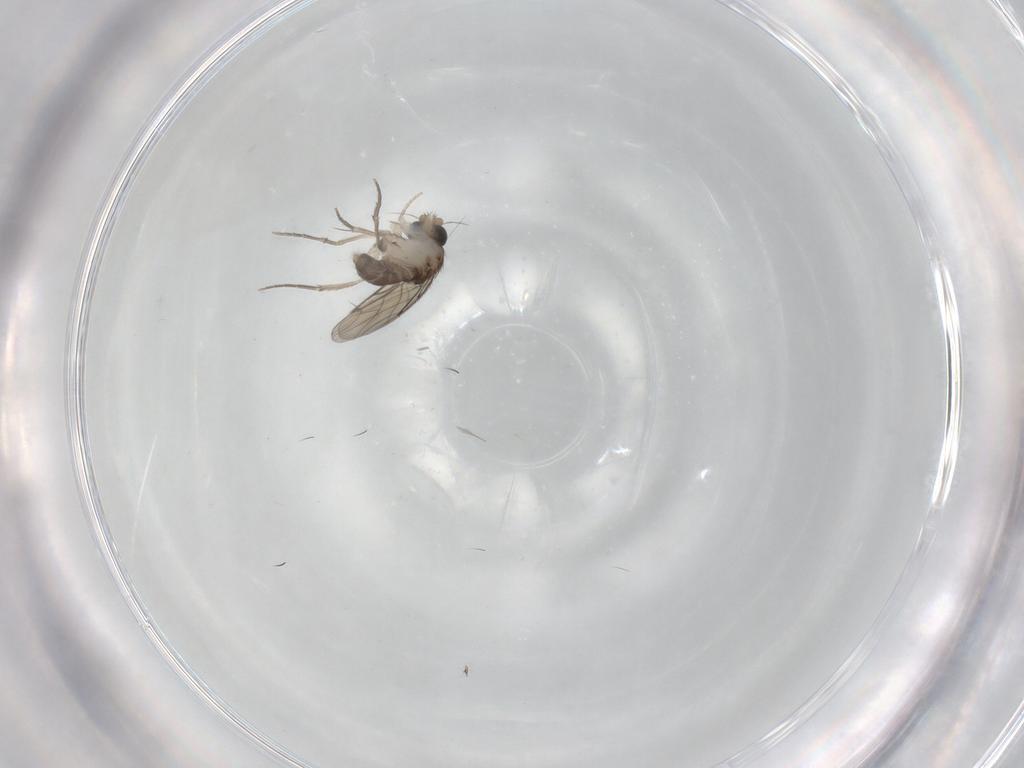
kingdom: Animalia
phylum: Arthropoda
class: Insecta
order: Diptera
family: Phoridae
